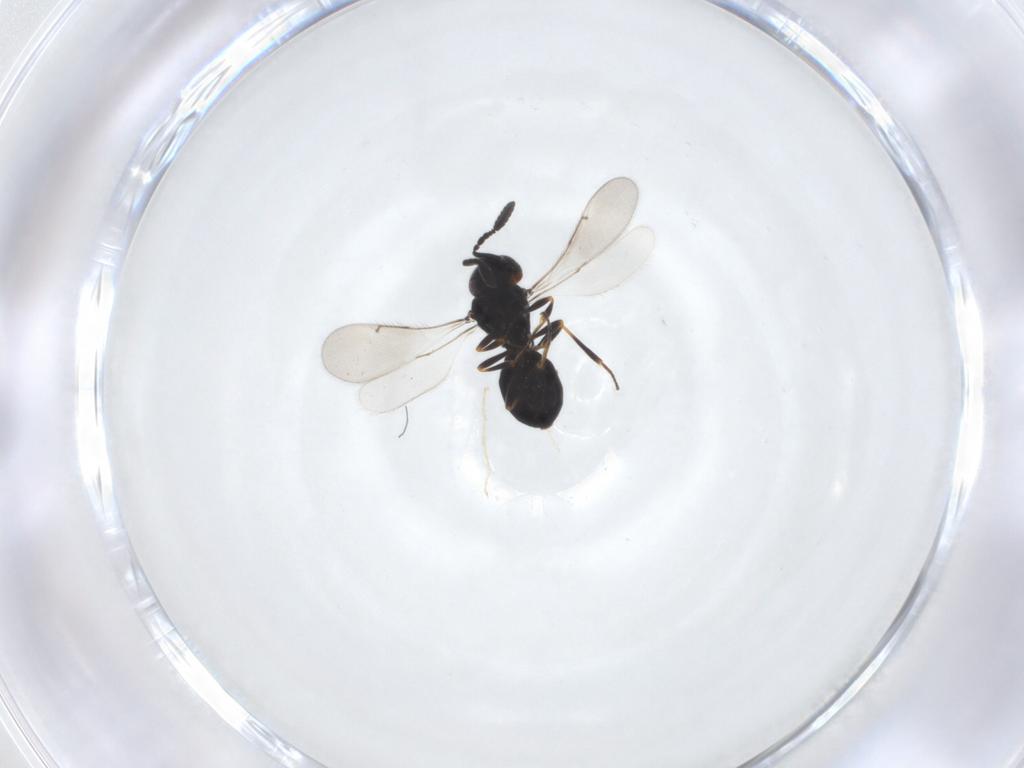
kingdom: Animalia
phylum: Arthropoda
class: Insecta
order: Hymenoptera
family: Scelionidae
